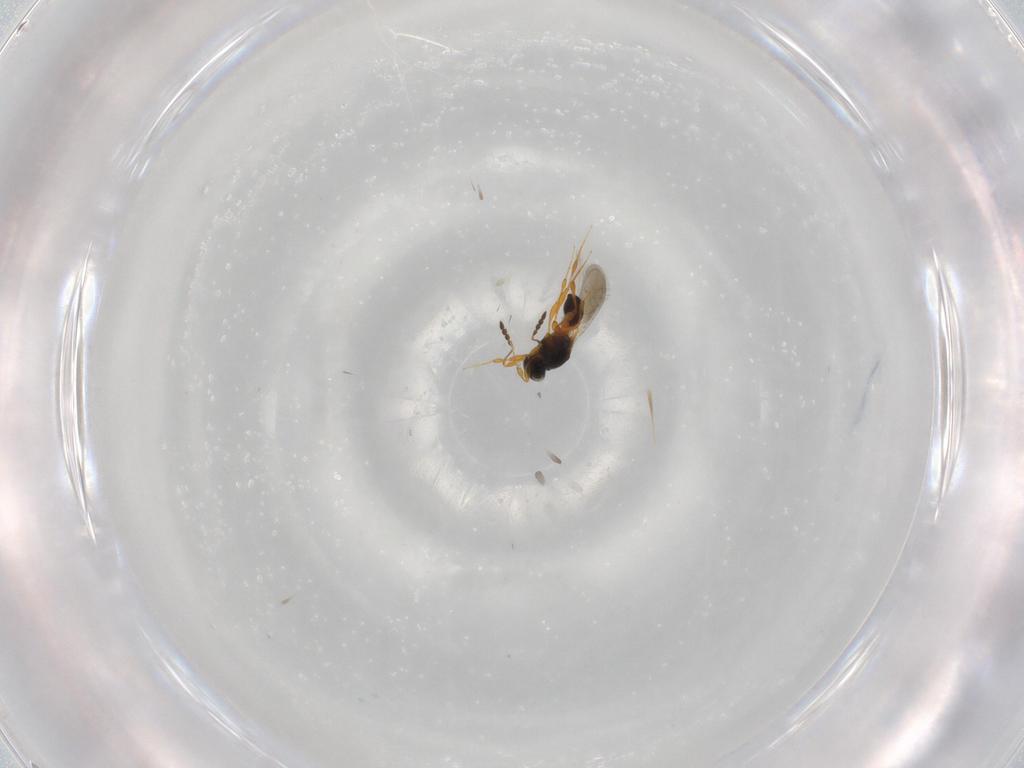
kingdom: Animalia
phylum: Arthropoda
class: Insecta
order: Hymenoptera
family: Platygastridae
